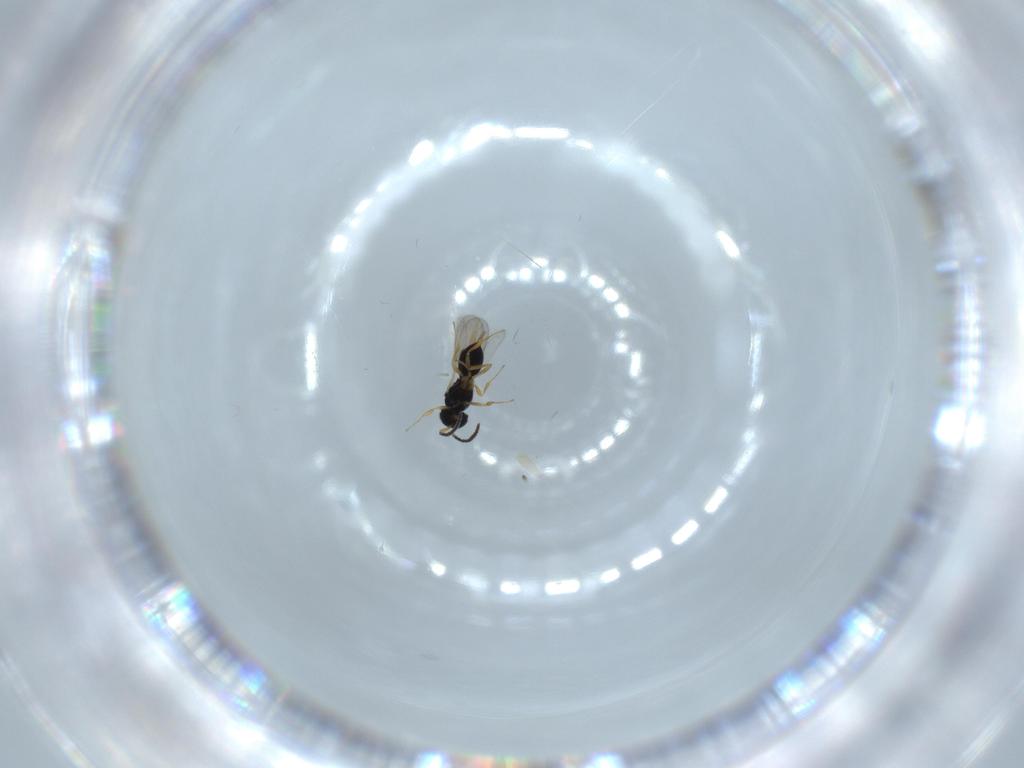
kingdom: Animalia
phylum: Arthropoda
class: Insecta
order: Hymenoptera
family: Scelionidae
